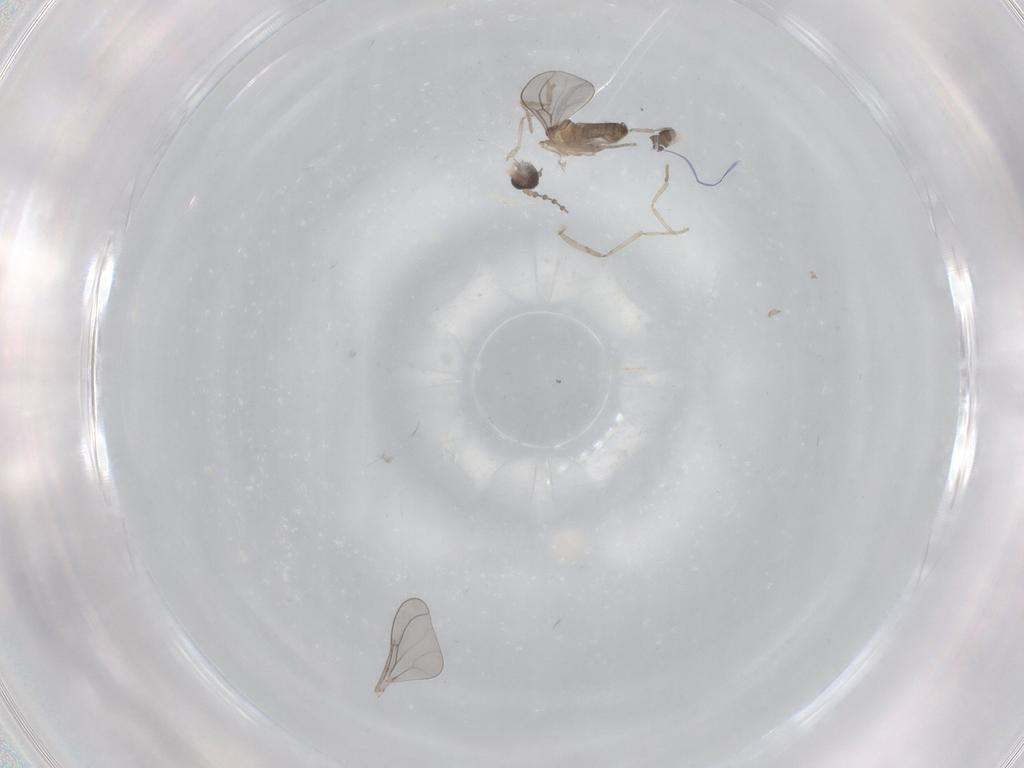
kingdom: Animalia
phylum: Arthropoda
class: Insecta
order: Diptera
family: Cecidomyiidae
